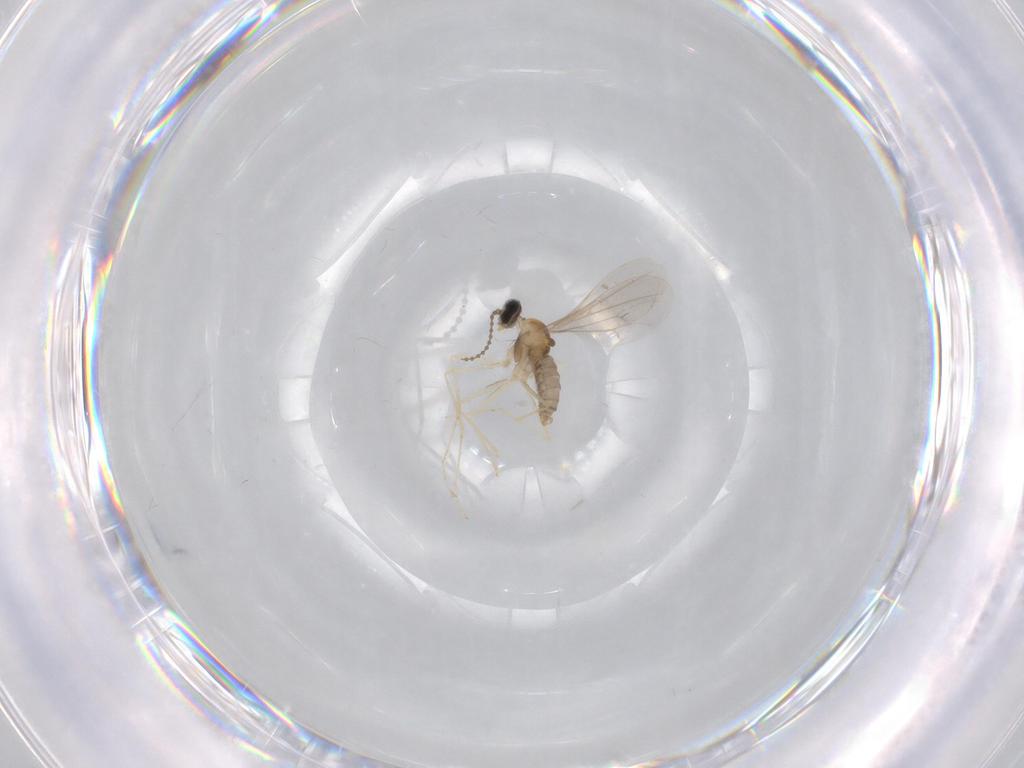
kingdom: Animalia
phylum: Arthropoda
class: Insecta
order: Diptera
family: Cecidomyiidae
